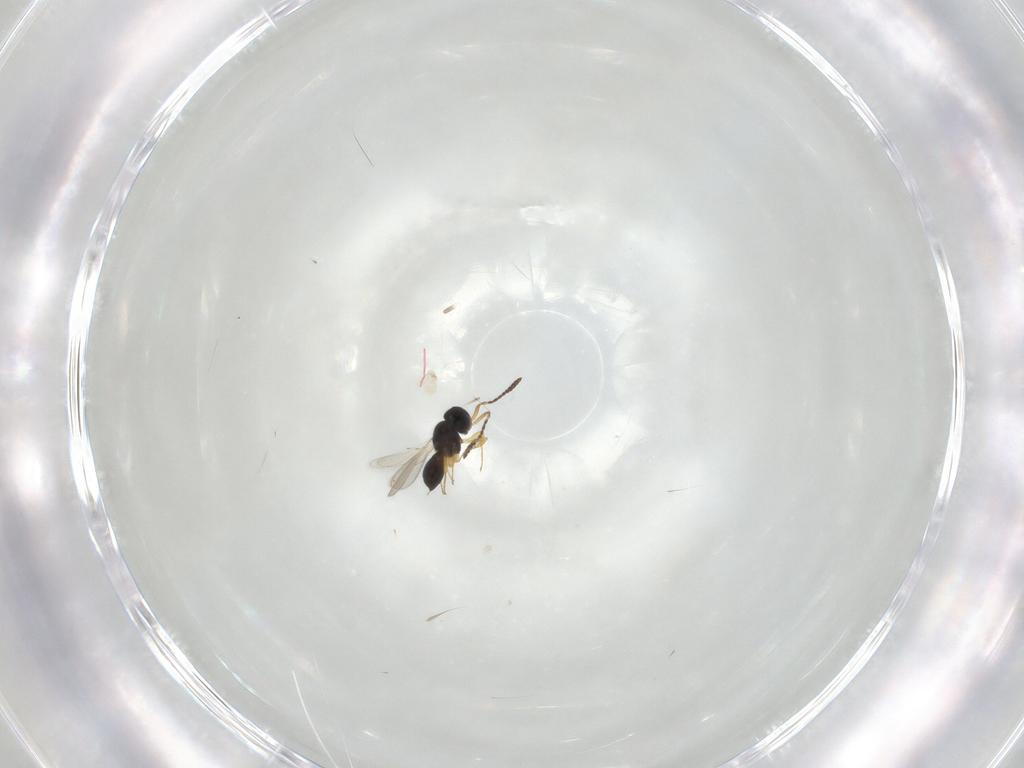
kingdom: Animalia
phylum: Arthropoda
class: Insecta
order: Hymenoptera
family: Scelionidae
